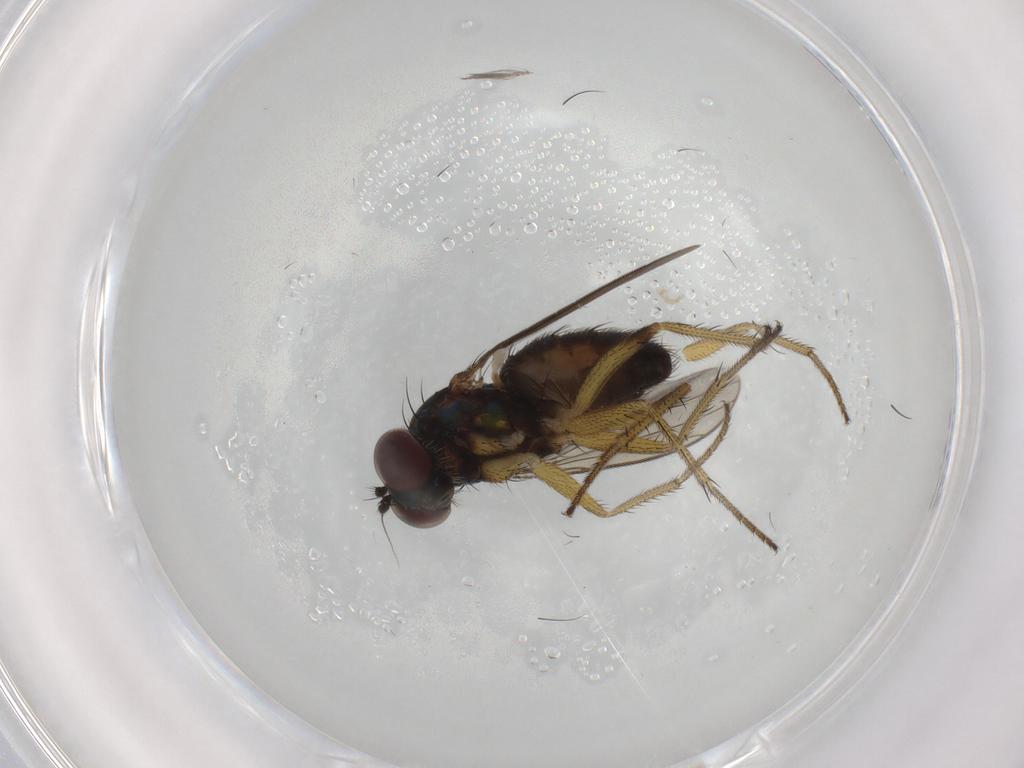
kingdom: Animalia
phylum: Arthropoda
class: Insecta
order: Diptera
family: Dolichopodidae
